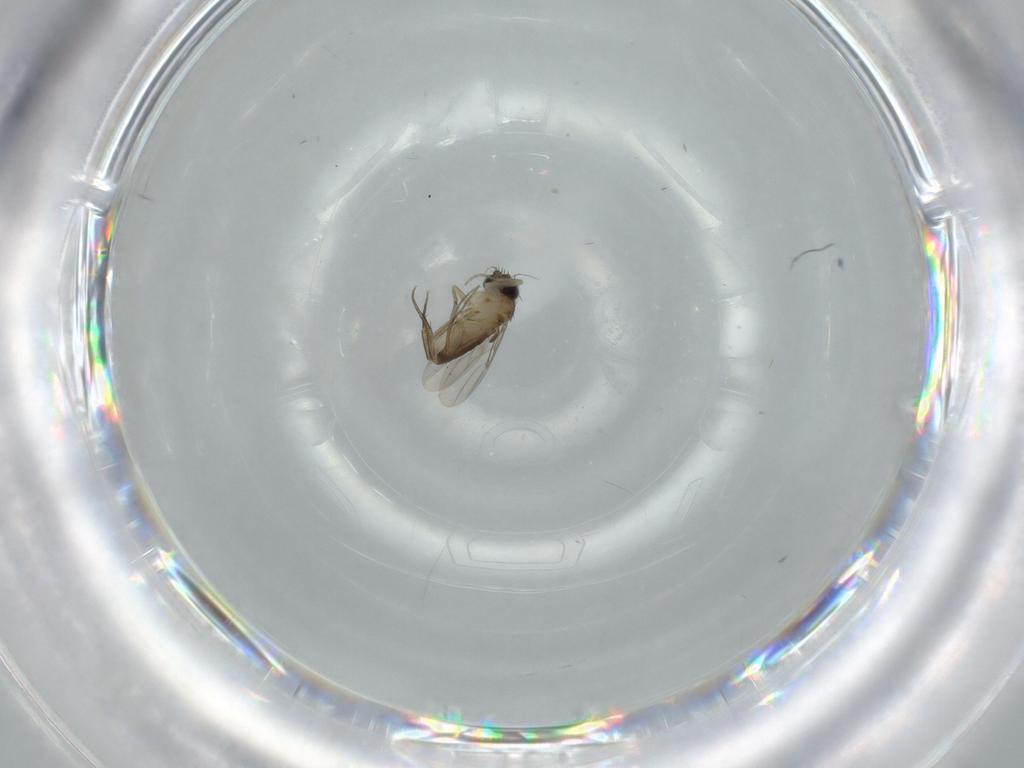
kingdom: Animalia
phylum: Arthropoda
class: Insecta
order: Diptera
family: Phoridae
